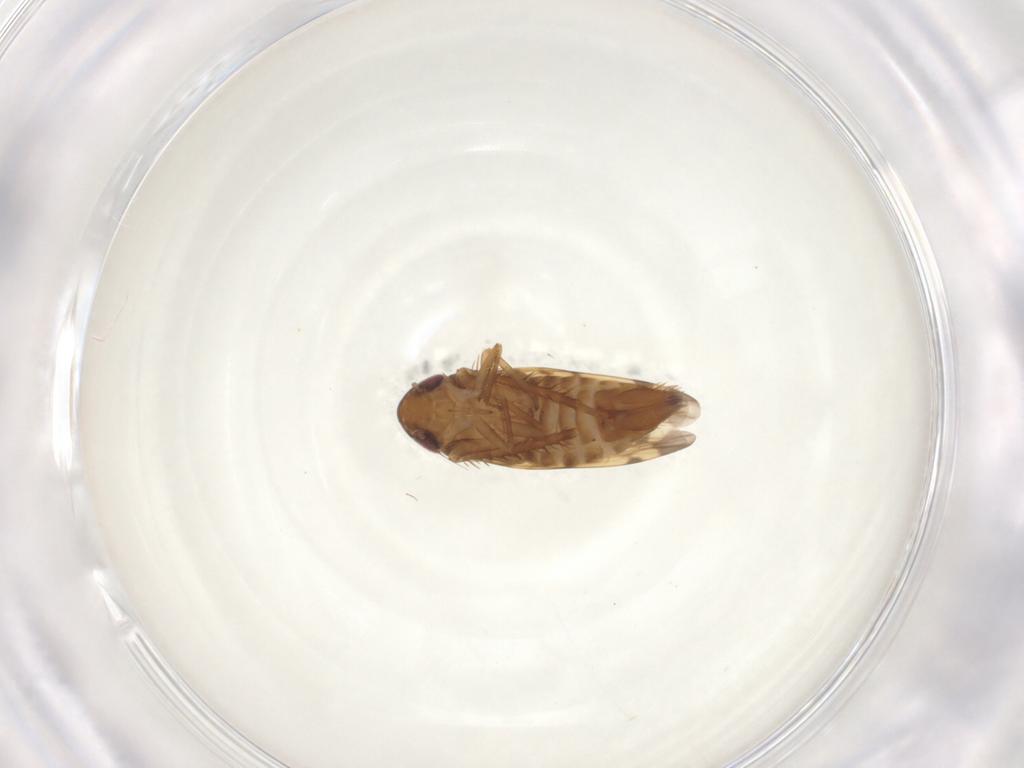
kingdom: Animalia
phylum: Arthropoda
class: Insecta
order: Hemiptera
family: Cicadellidae
